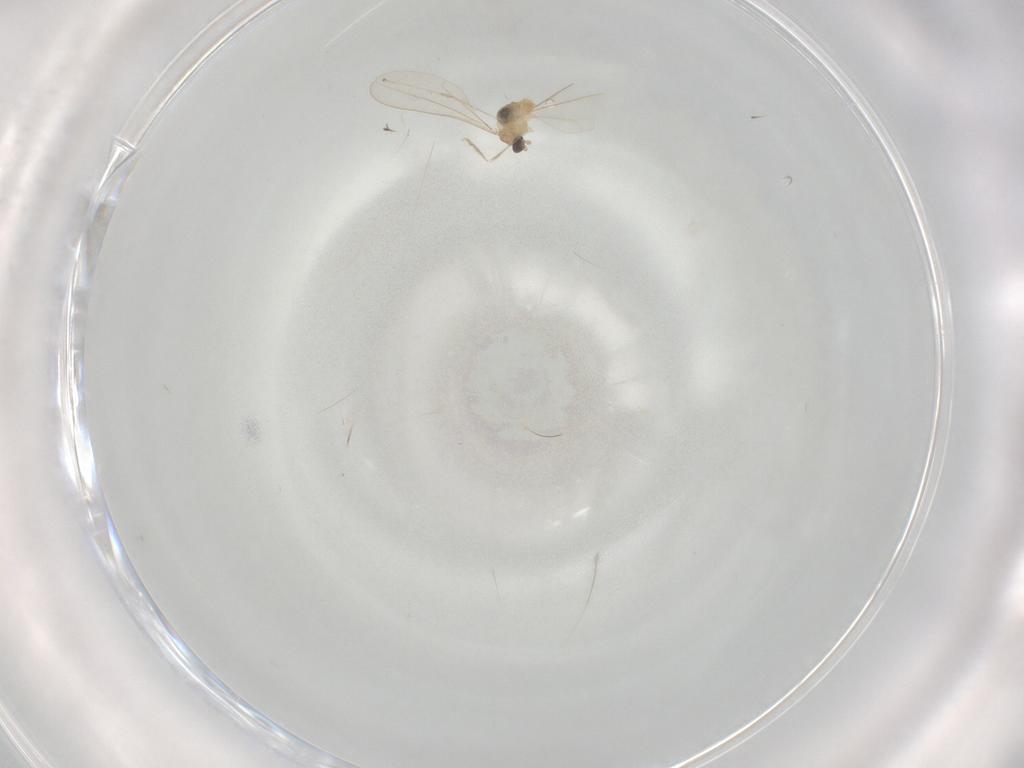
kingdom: Animalia
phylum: Arthropoda
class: Insecta
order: Diptera
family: Cecidomyiidae
